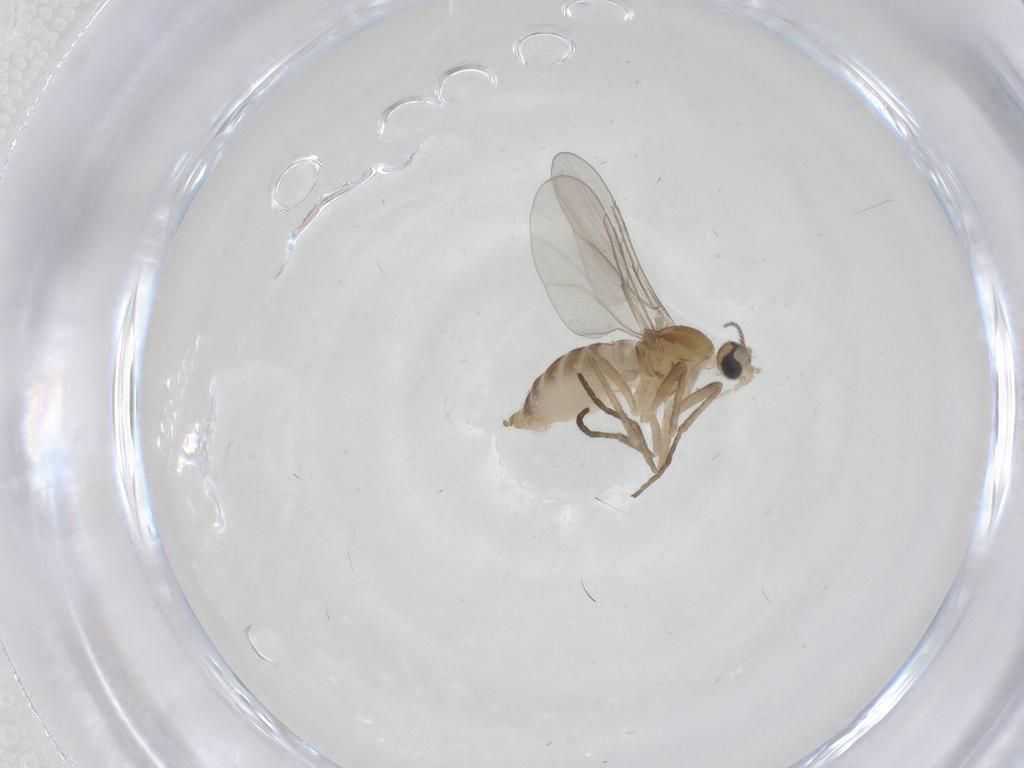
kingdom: Animalia
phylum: Arthropoda
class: Insecta
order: Diptera
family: Cecidomyiidae
